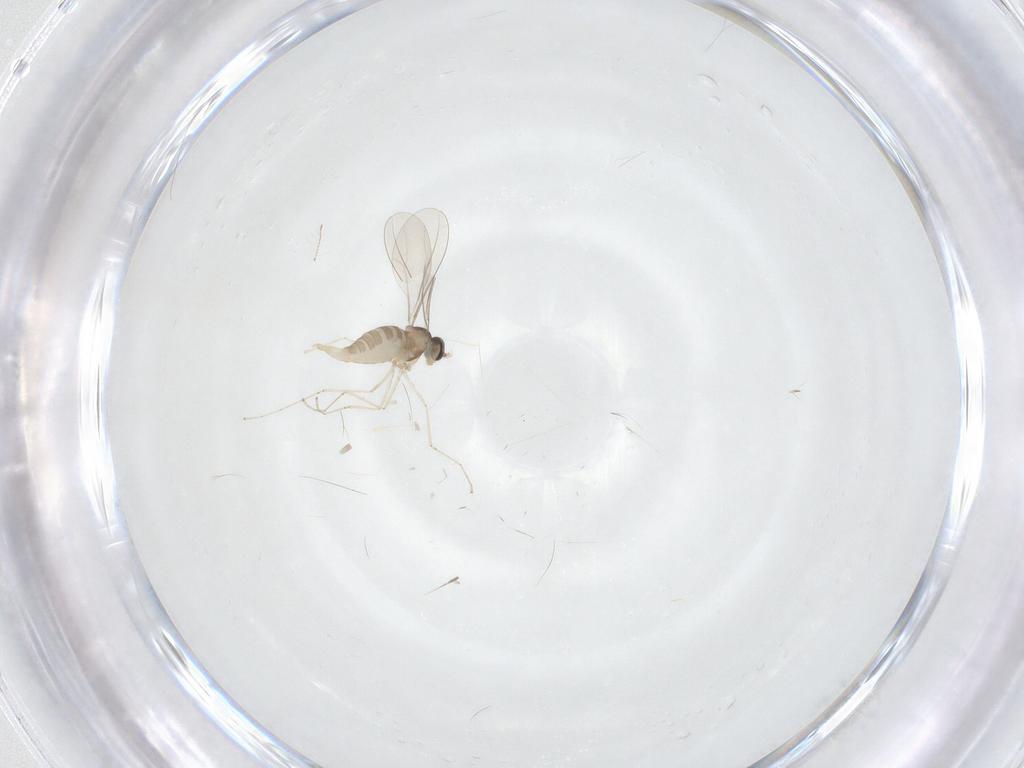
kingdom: Animalia
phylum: Arthropoda
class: Insecta
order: Diptera
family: Cecidomyiidae
